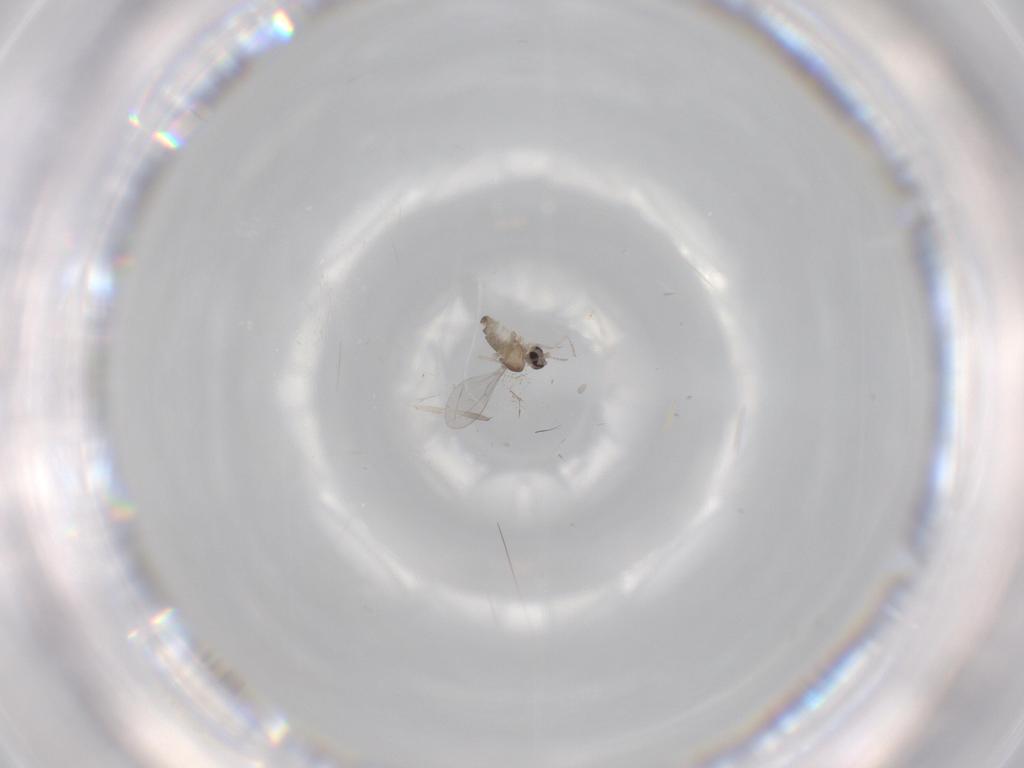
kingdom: Animalia
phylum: Arthropoda
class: Insecta
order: Diptera
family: Cecidomyiidae
